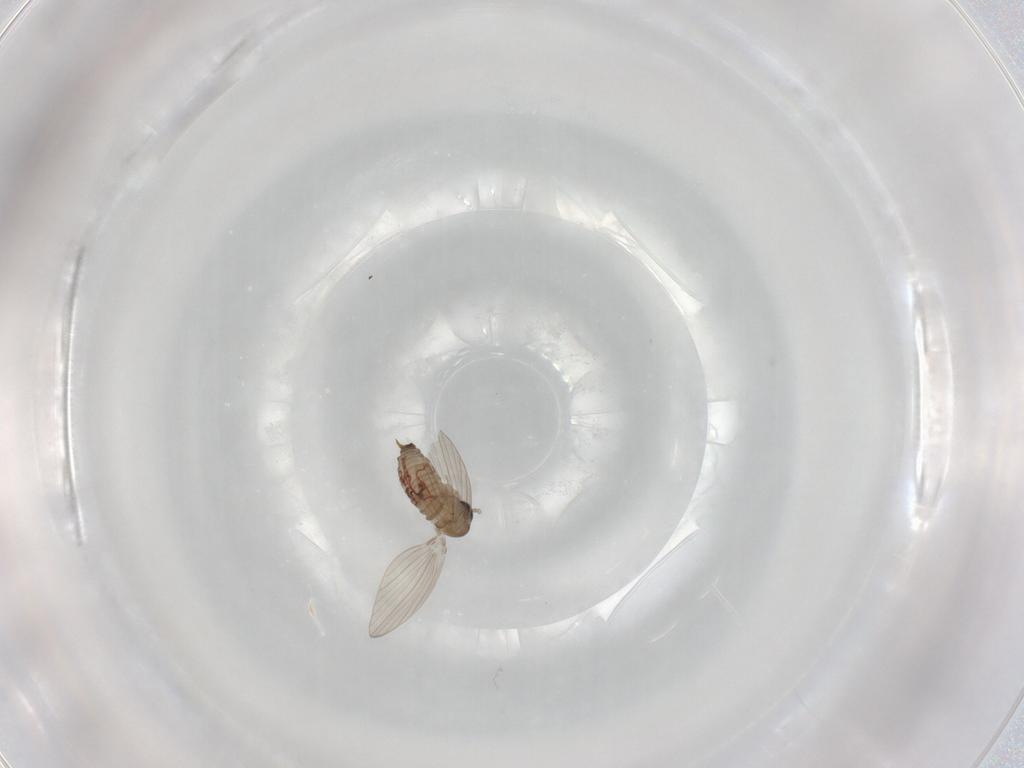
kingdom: Animalia
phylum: Arthropoda
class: Insecta
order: Diptera
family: Psychodidae
